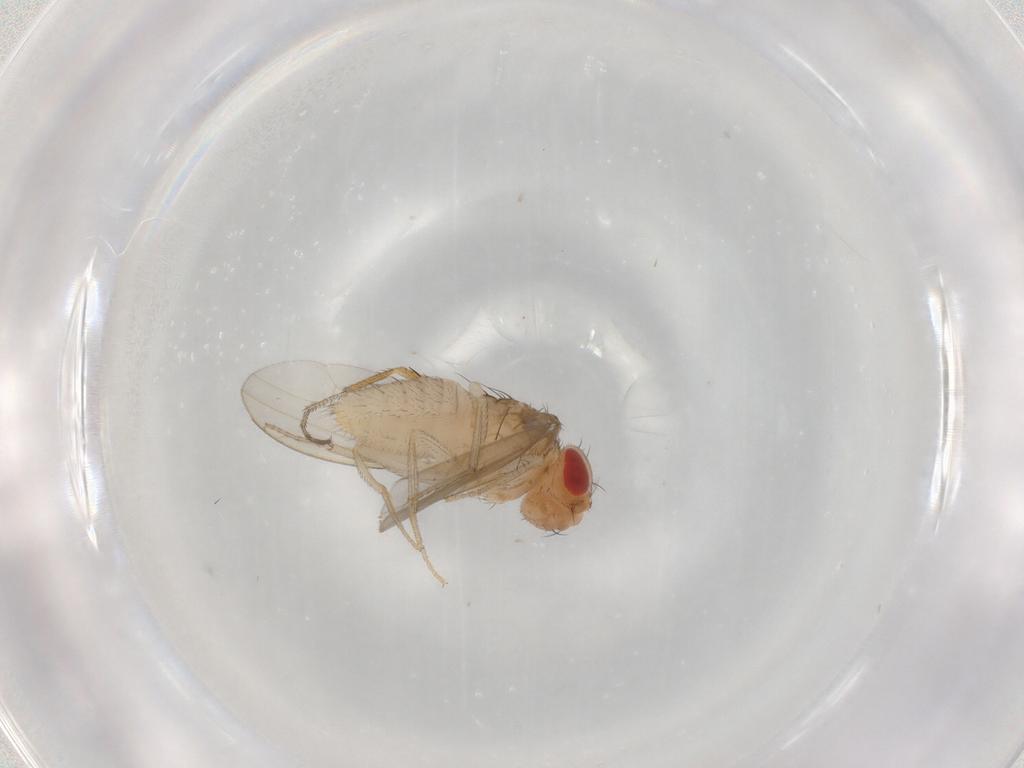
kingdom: Animalia
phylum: Arthropoda
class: Insecta
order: Diptera
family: Drosophilidae
